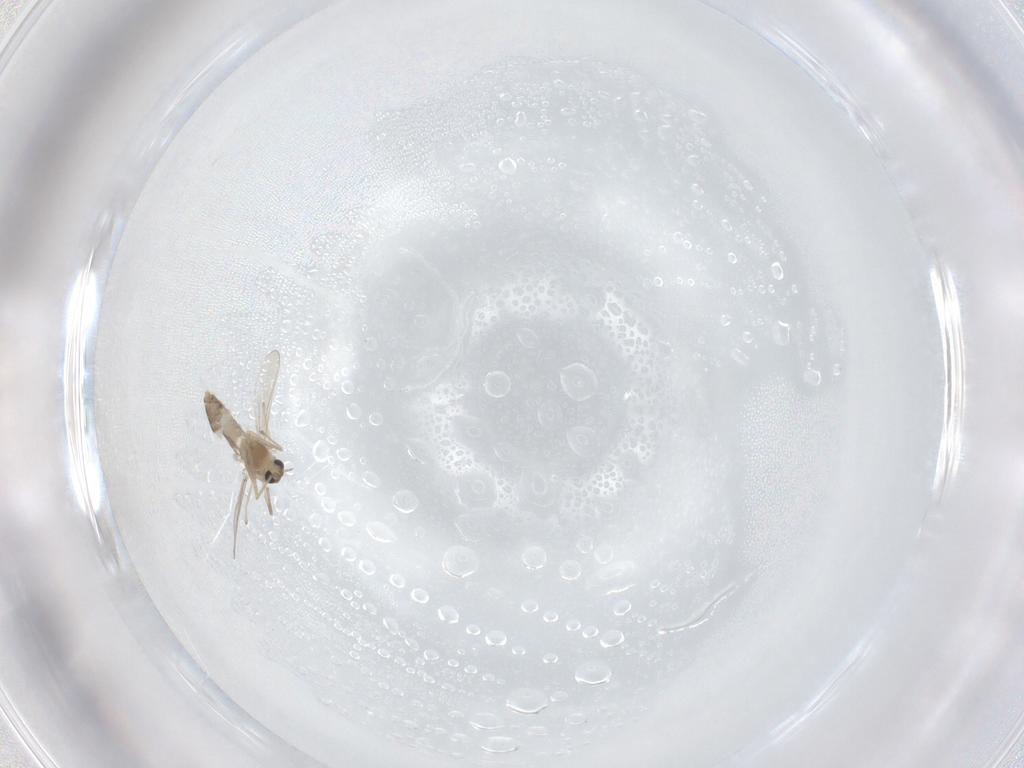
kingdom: Animalia
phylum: Arthropoda
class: Insecta
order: Diptera
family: Chironomidae
